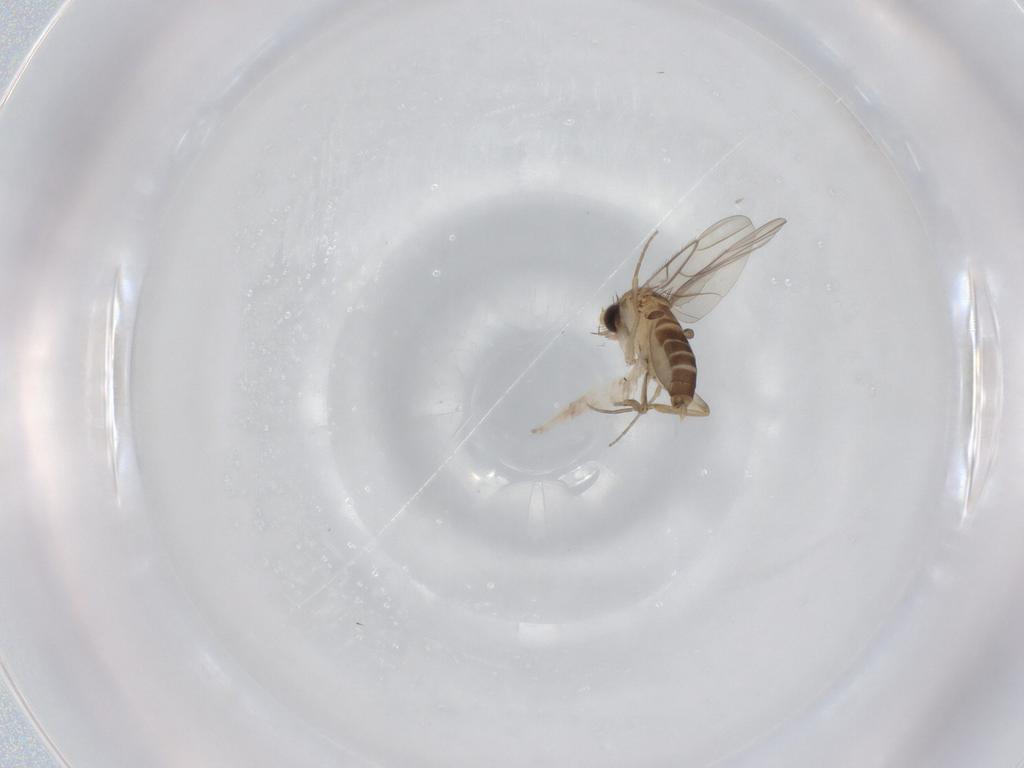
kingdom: Animalia
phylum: Arthropoda
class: Insecta
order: Diptera
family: Phoridae
